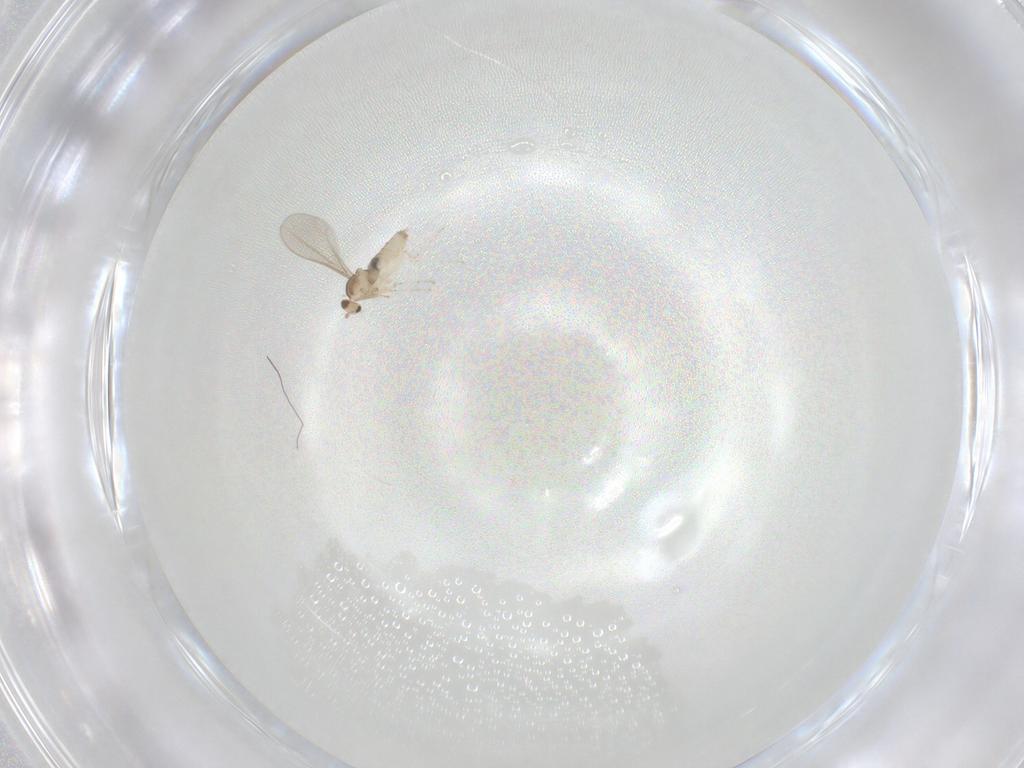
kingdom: Animalia
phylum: Arthropoda
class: Insecta
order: Diptera
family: Cecidomyiidae
